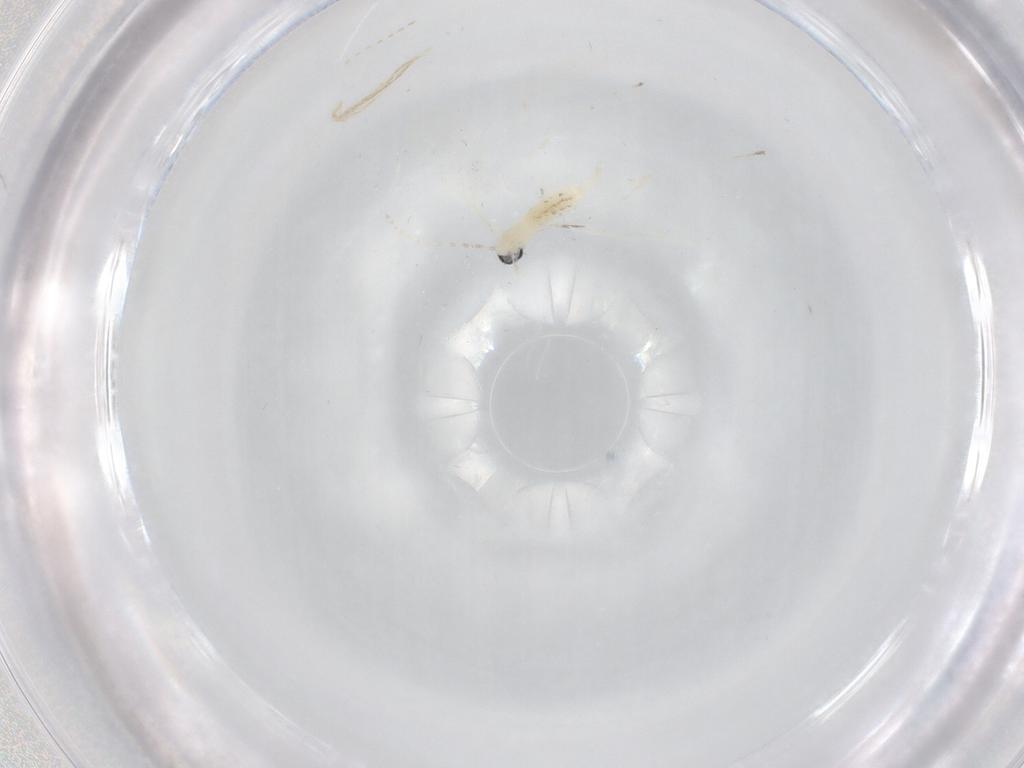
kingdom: Animalia
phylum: Arthropoda
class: Insecta
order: Diptera
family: Cecidomyiidae
